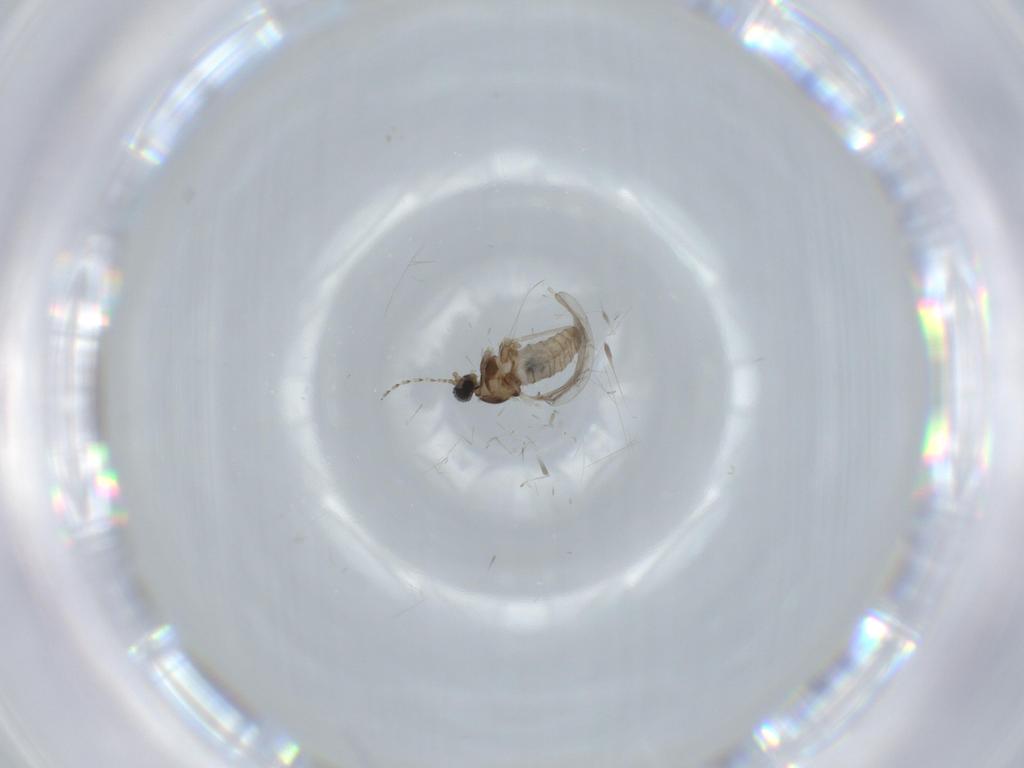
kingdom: Animalia
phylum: Arthropoda
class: Insecta
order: Diptera
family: Cecidomyiidae
